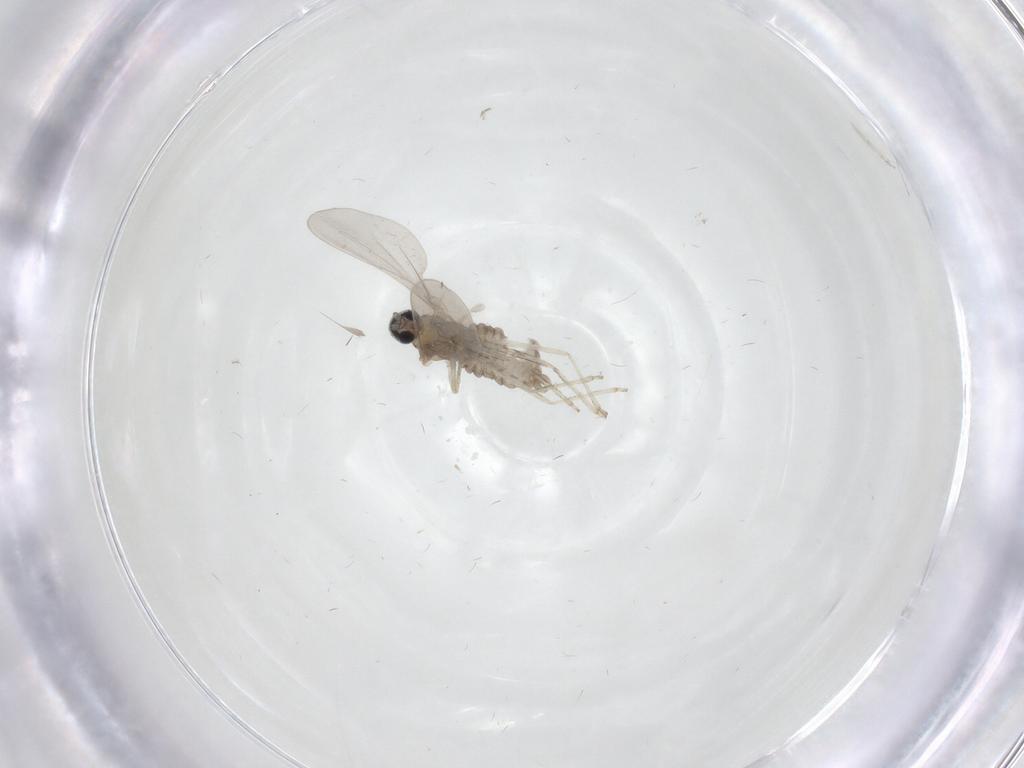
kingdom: Animalia
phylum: Arthropoda
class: Insecta
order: Diptera
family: Cecidomyiidae
